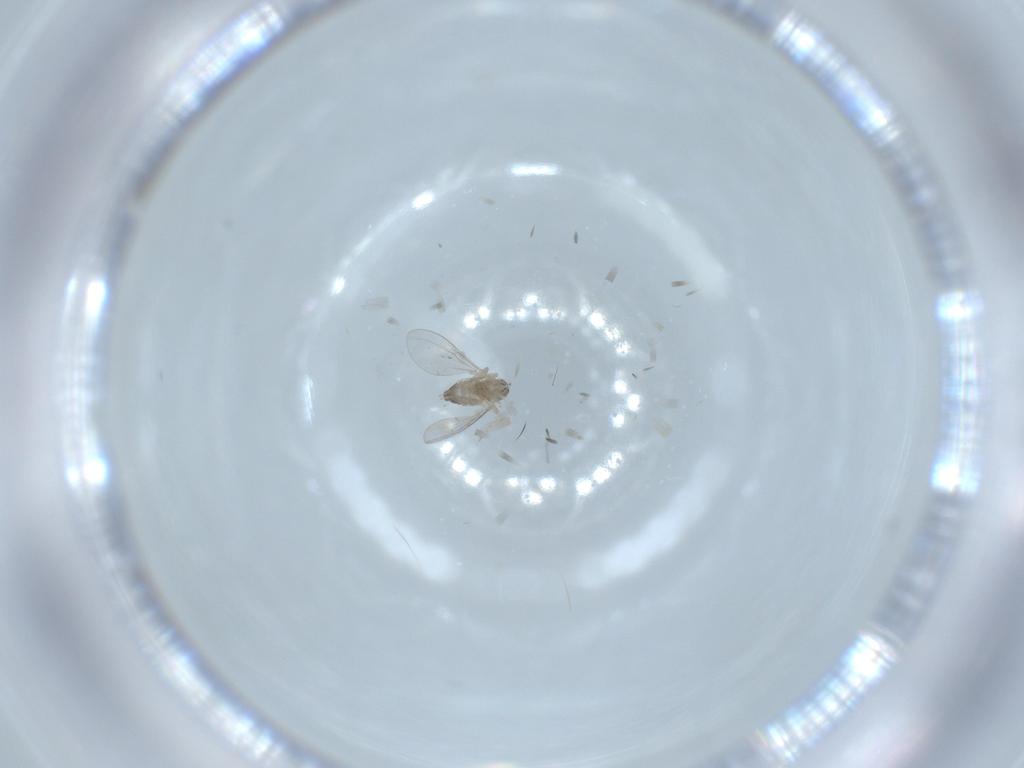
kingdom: Animalia
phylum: Arthropoda
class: Insecta
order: Diptera
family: Cecidomyiidae
